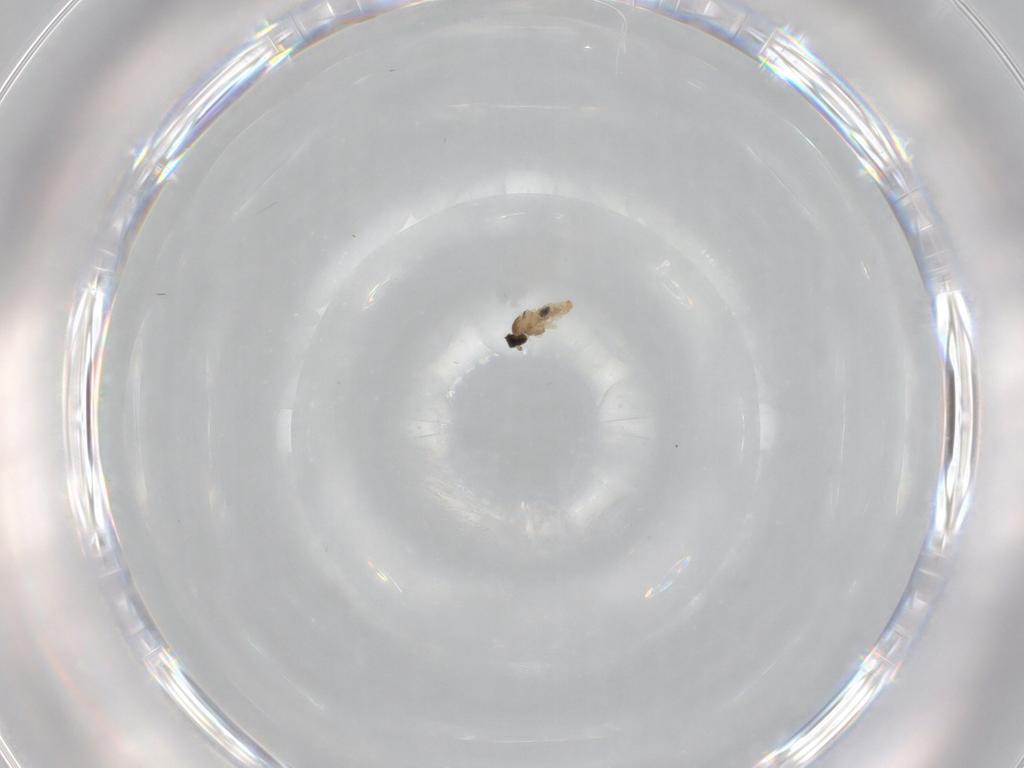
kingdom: Animalia
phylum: Arthropoda
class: Insecta
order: Diptera
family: Cecidomyiidae
